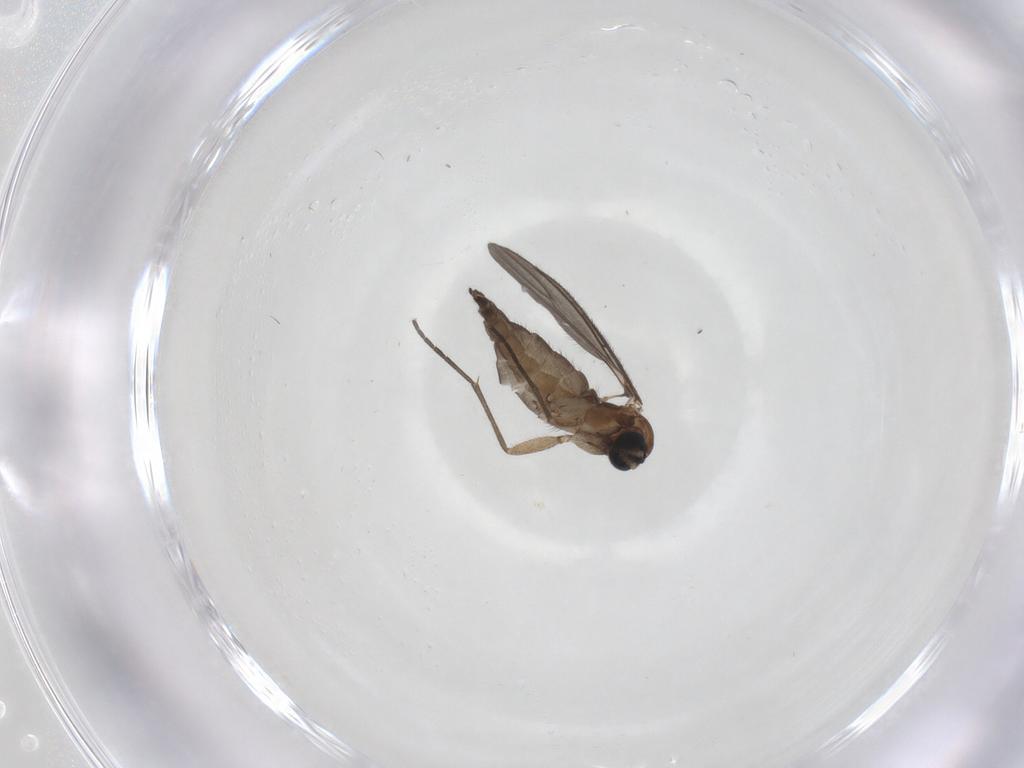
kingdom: Animalia
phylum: Arthropoda
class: Insecta
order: Diptera
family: Sciaridae
